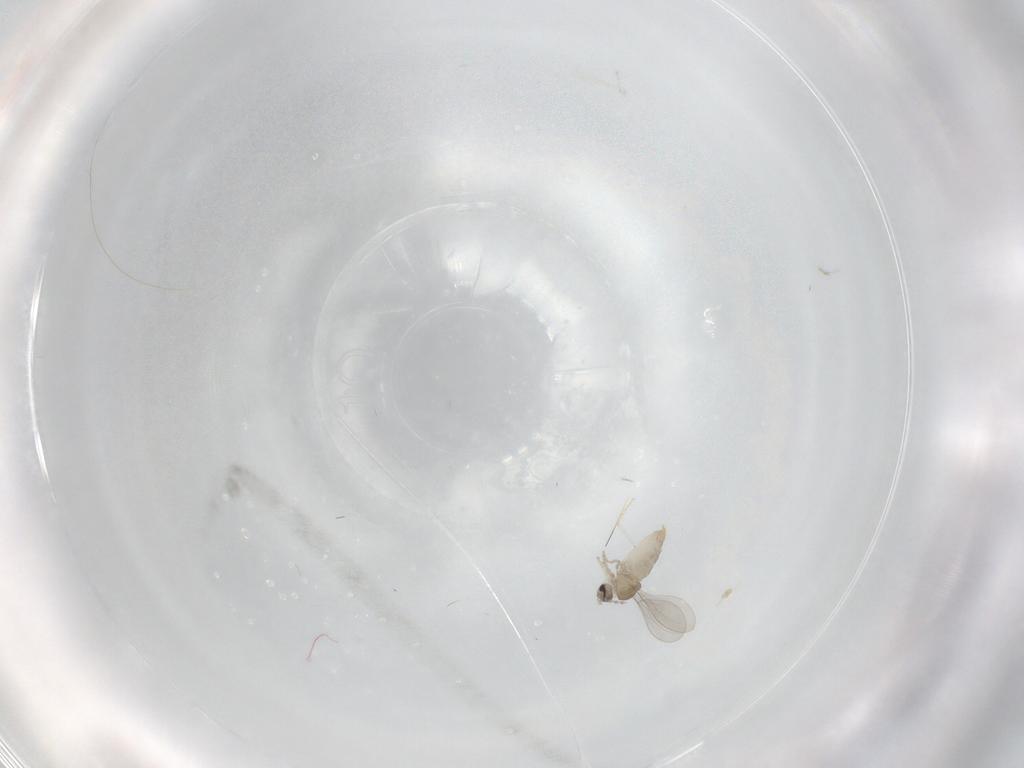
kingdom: Animalia
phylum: Arthropoda
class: Insecta
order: Diptera
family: Cecidomyiidae
